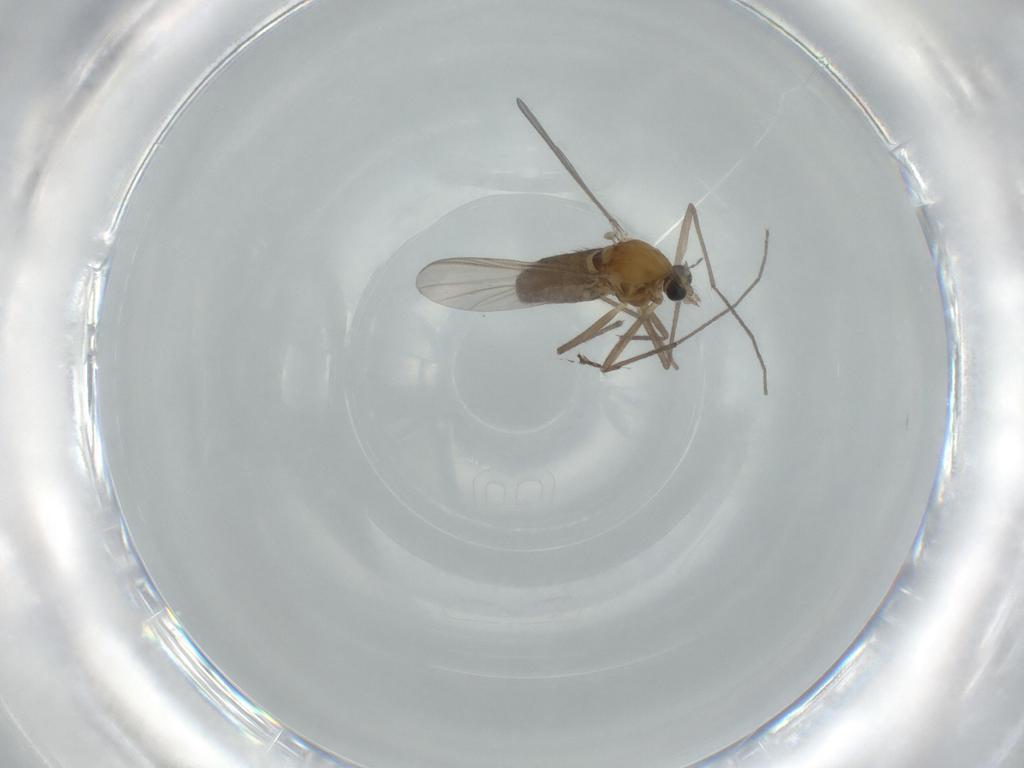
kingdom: Animalia
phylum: Arthropoda
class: Insecta
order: Diptera
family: Chironomidae
